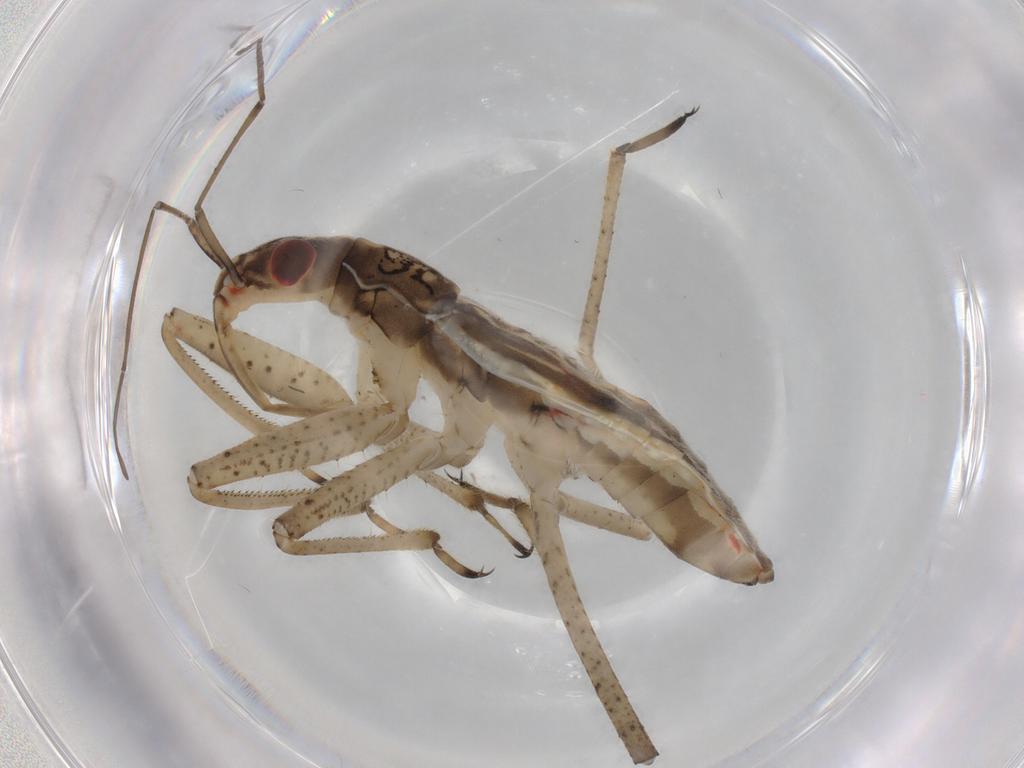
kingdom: Animalia
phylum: Arthropoda
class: Insecta
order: Hemiptera
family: Nabidae
